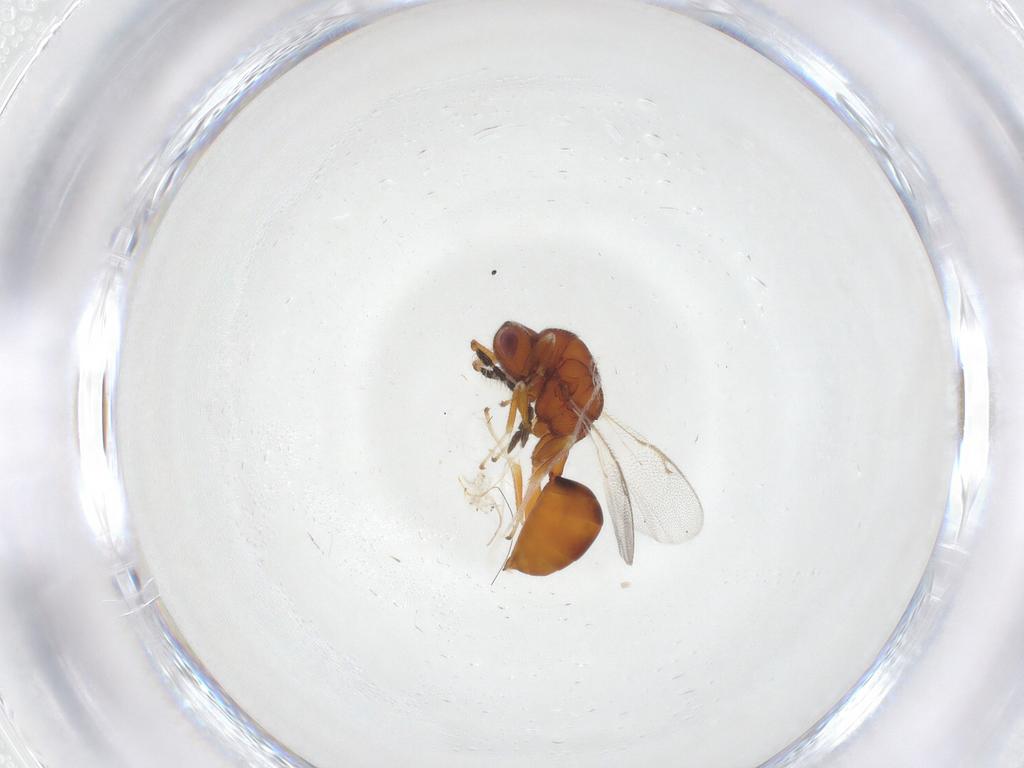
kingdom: Animalia
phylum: Arthropoda
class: Insecta
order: Hymenoptera
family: Eurytomidae
